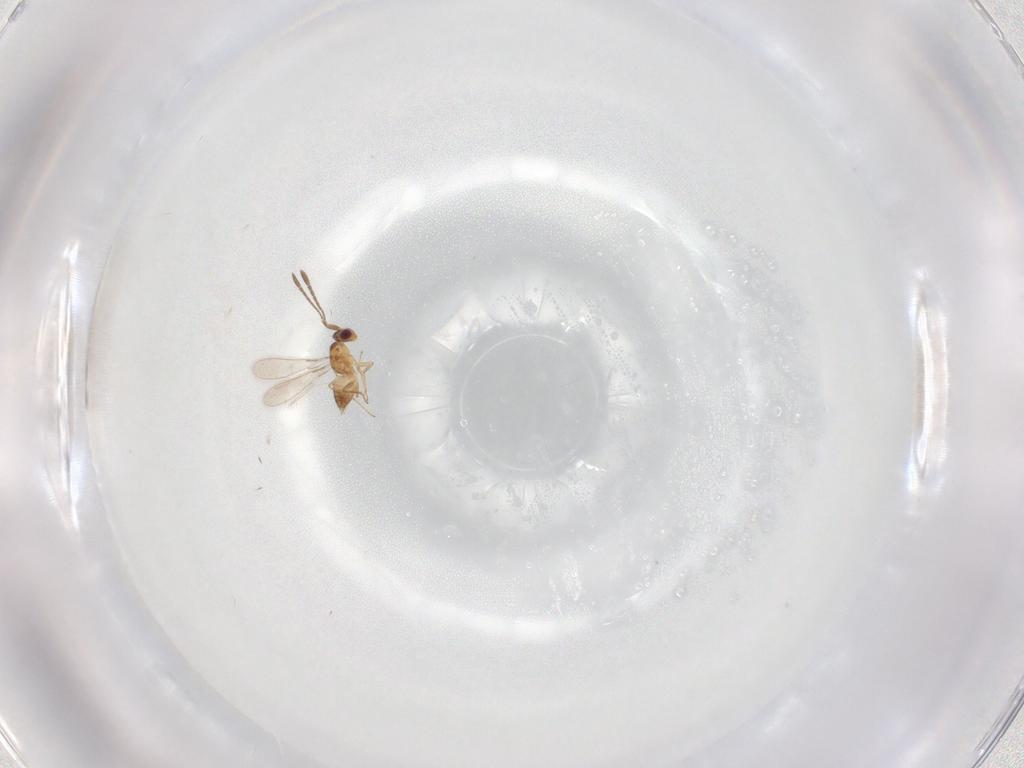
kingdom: Animalia
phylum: Arthropoda
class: Insecta
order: Hymenoptera
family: Mymaridae
